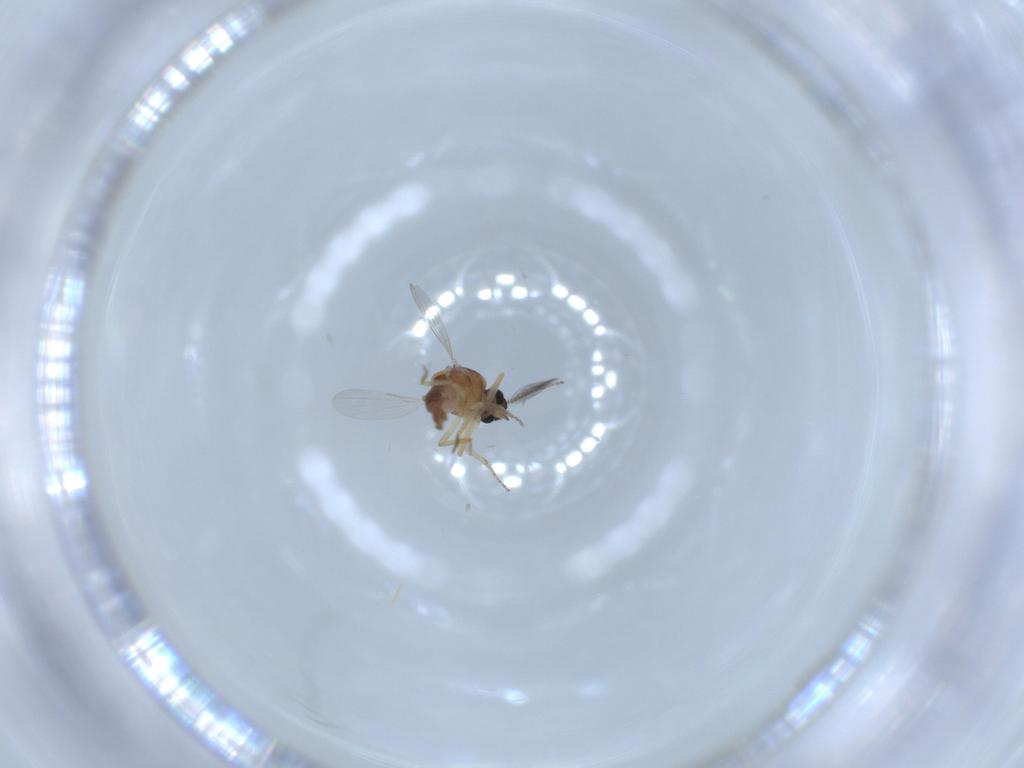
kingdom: Animalia
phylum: Arthropoda
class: Insecta
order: Diptera
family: Ceratopogonidae
